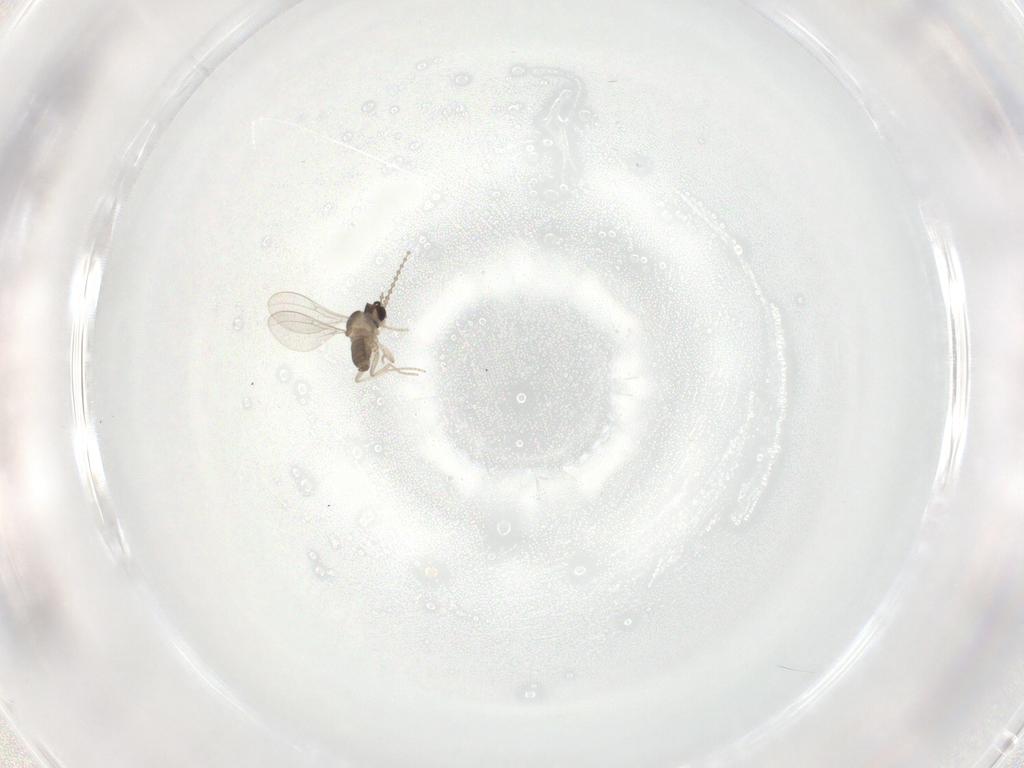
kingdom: Animalia
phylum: Arthropoda
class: Insecta
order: Diptera
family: Cecidomyiidae
